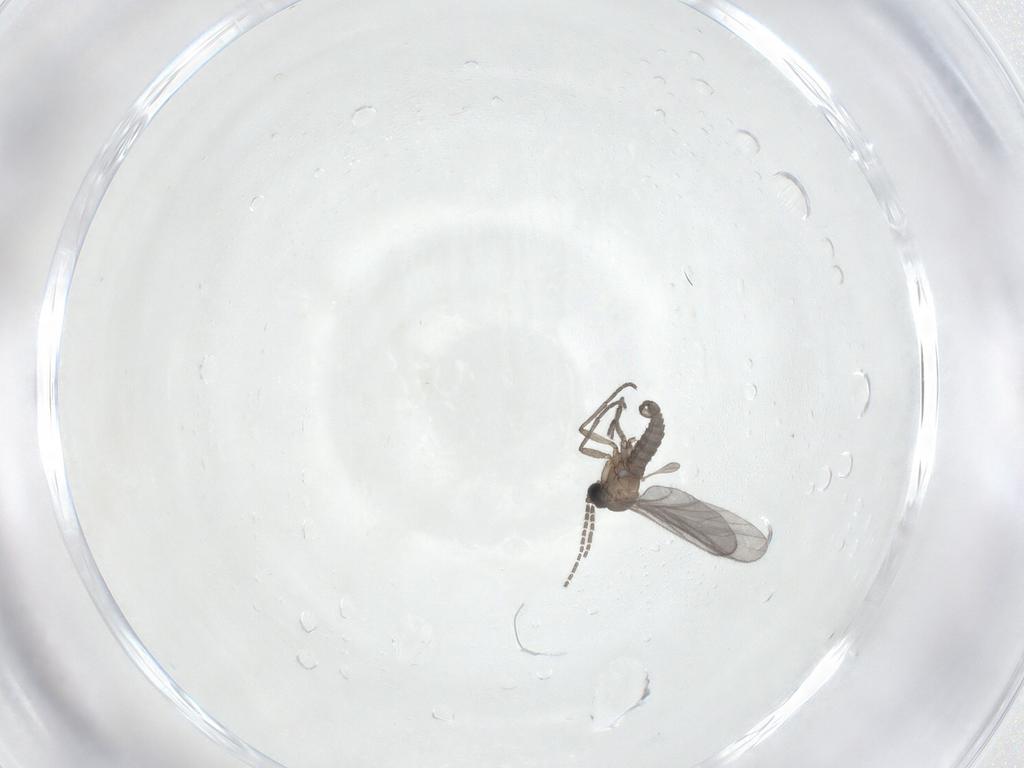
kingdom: Animalia
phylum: Arthropoda
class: Insecta
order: Diptera
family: Sciaridae
